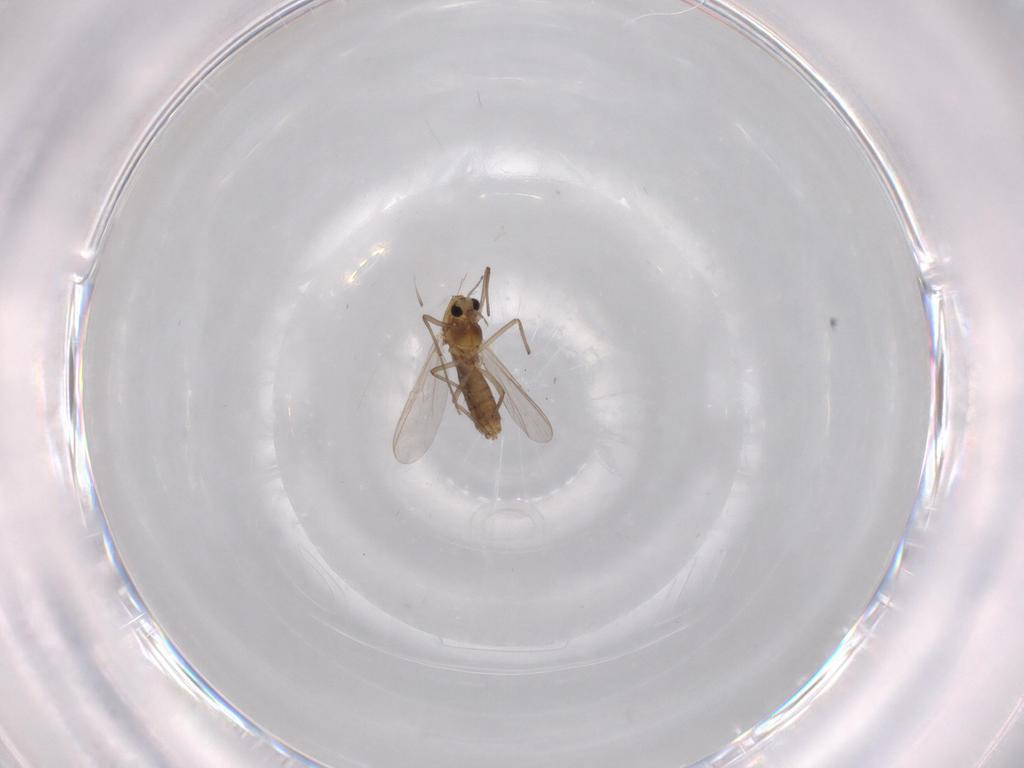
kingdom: Animalia
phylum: Arthropoda
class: Insecta
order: Diptera
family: Chironomidae
